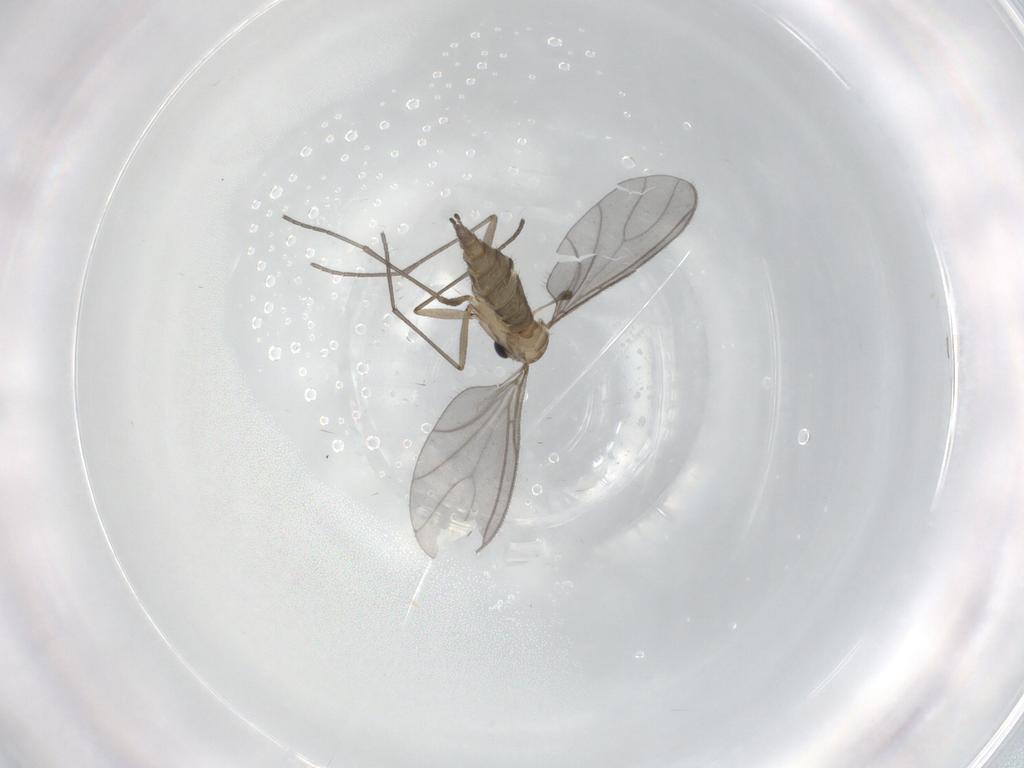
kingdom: Animalia
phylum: Arthropoda
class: Insecta
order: Diptera
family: Sciaridae
